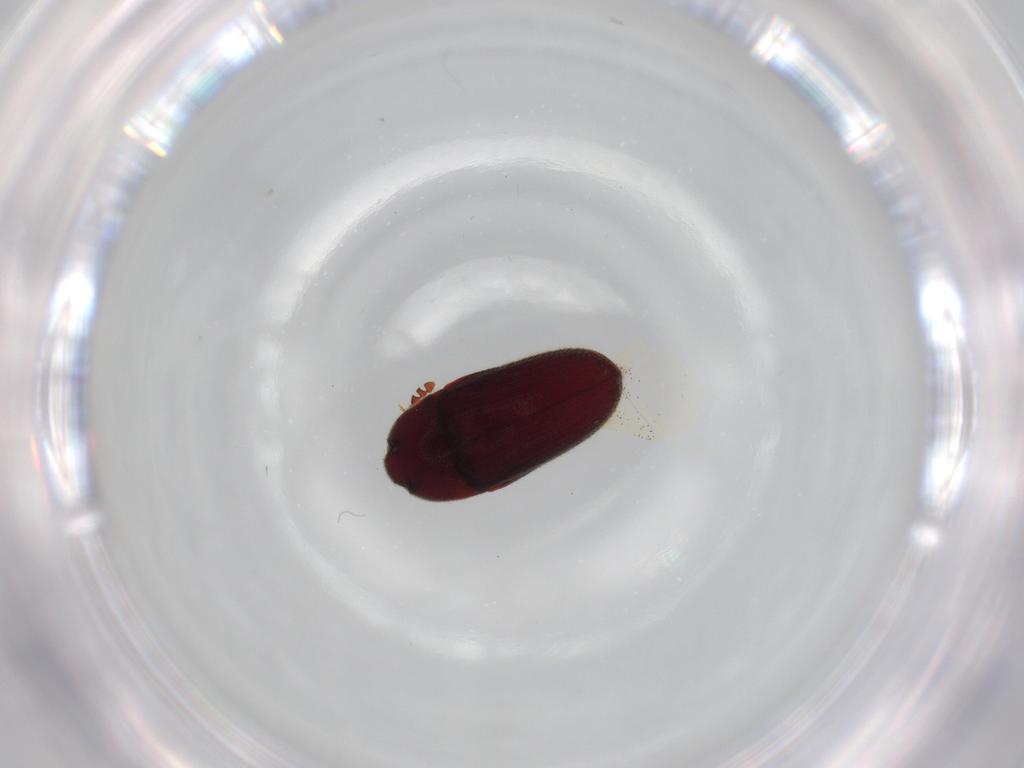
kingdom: Animalia
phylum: Arthropoda
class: Insecta
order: Coleoptera
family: Throscidae
